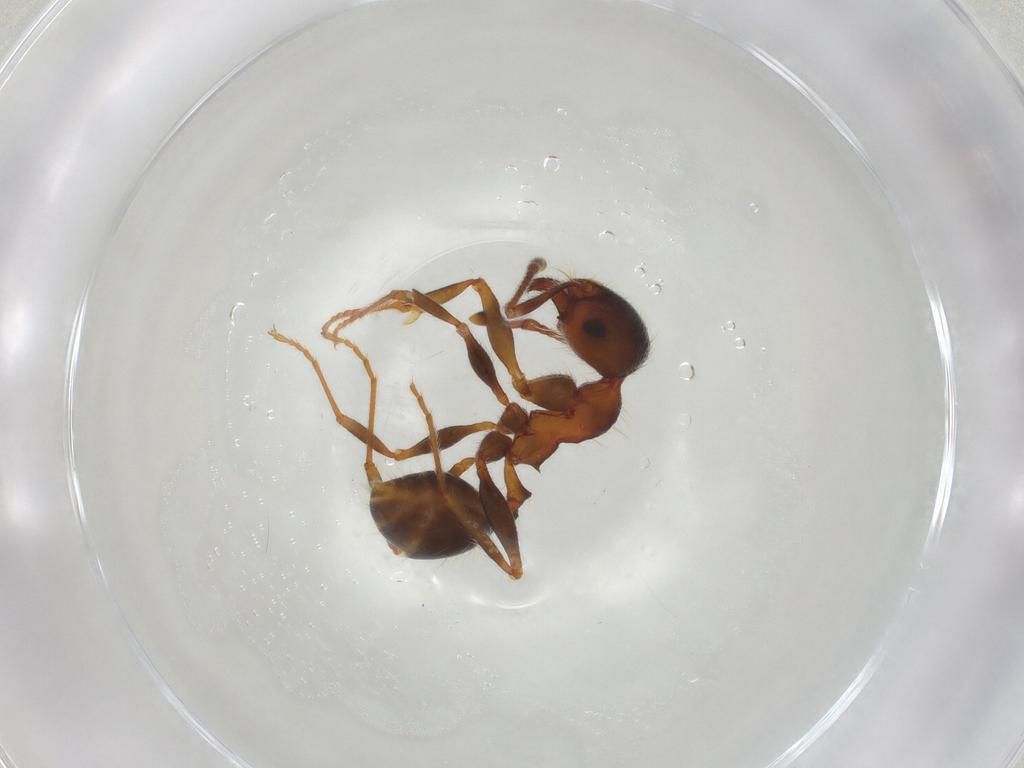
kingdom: Animalia
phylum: Arthropoda
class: Insecta
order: Hymenoptera
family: Formicidae
